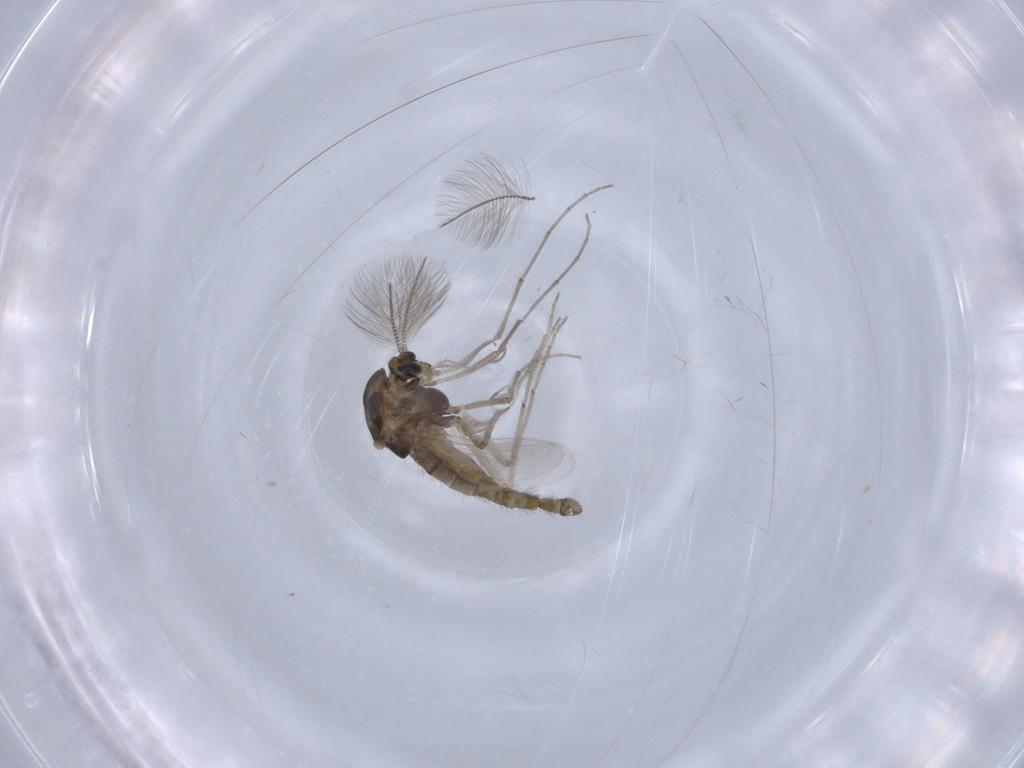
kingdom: Animalia
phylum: Arthropoda
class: Insecta
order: Diptera
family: Chironomidae
